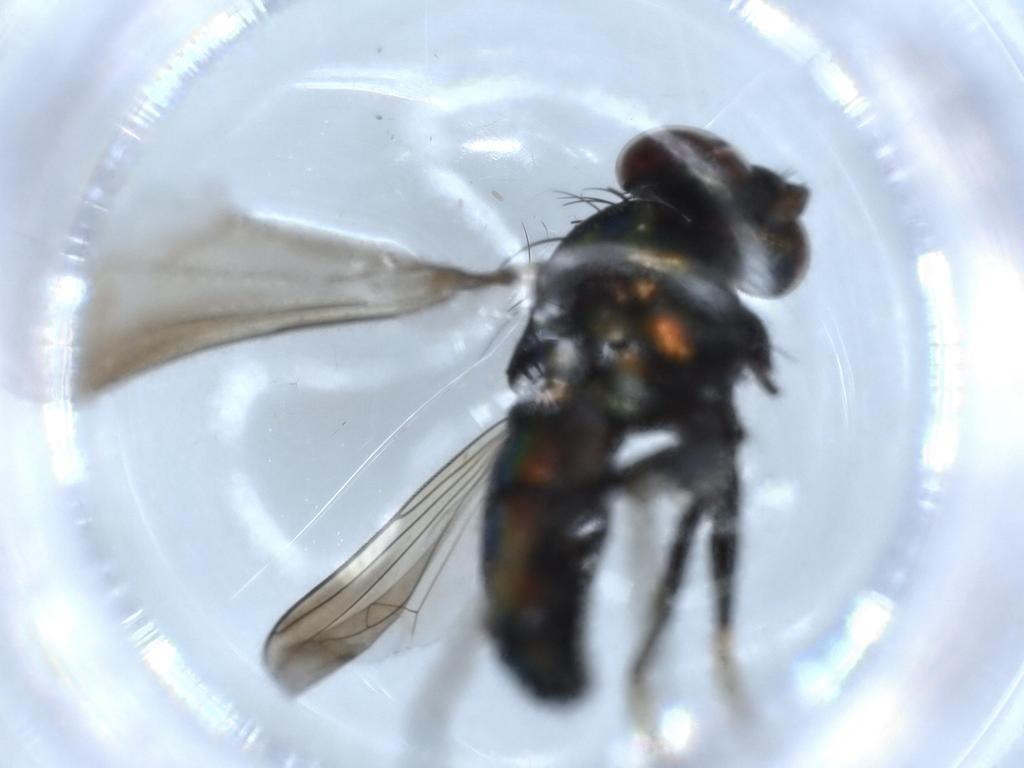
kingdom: Animalia
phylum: Arthropoda
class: Insecta
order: Diptera
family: Dolichopodidae
